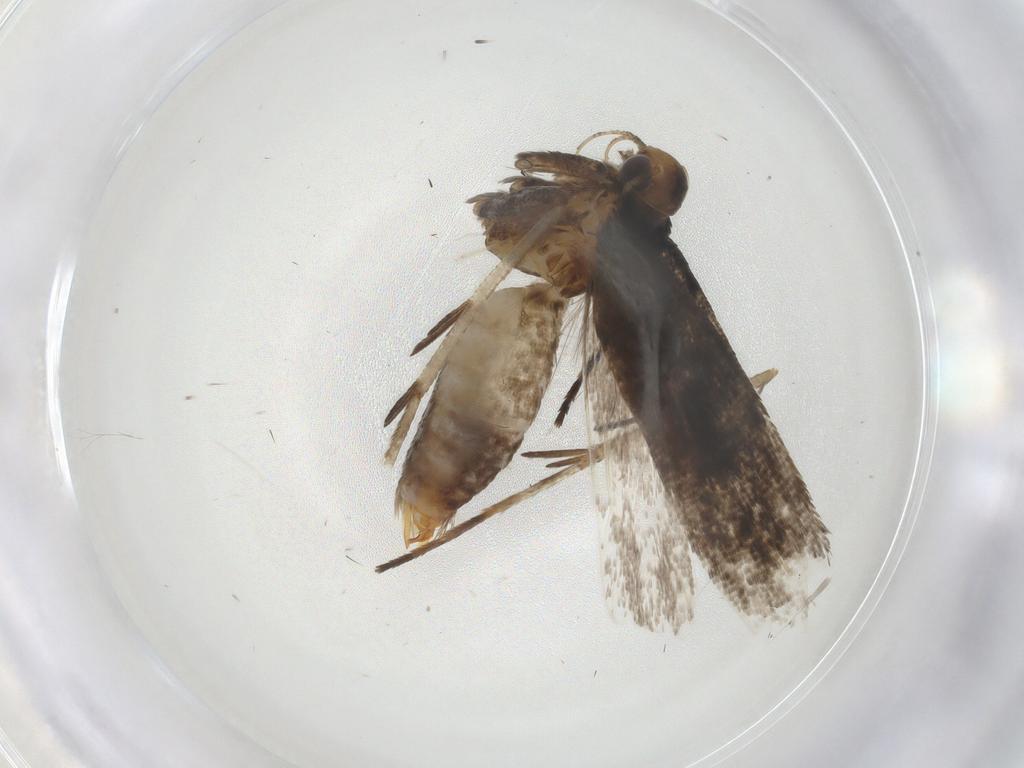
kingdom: Animalia
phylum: Arthropoda
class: Insecta
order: Lepidoptera
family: Gelechiidae
